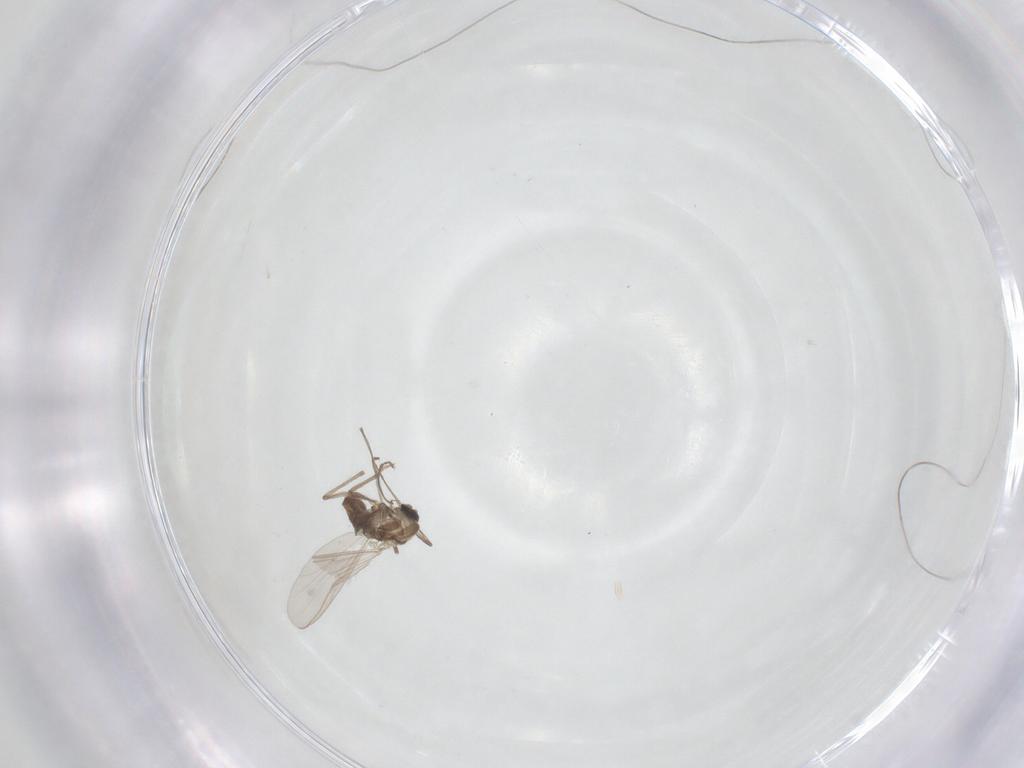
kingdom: Animalia
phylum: Arthropoda
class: Insecta
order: Diptera
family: Chironomidae
